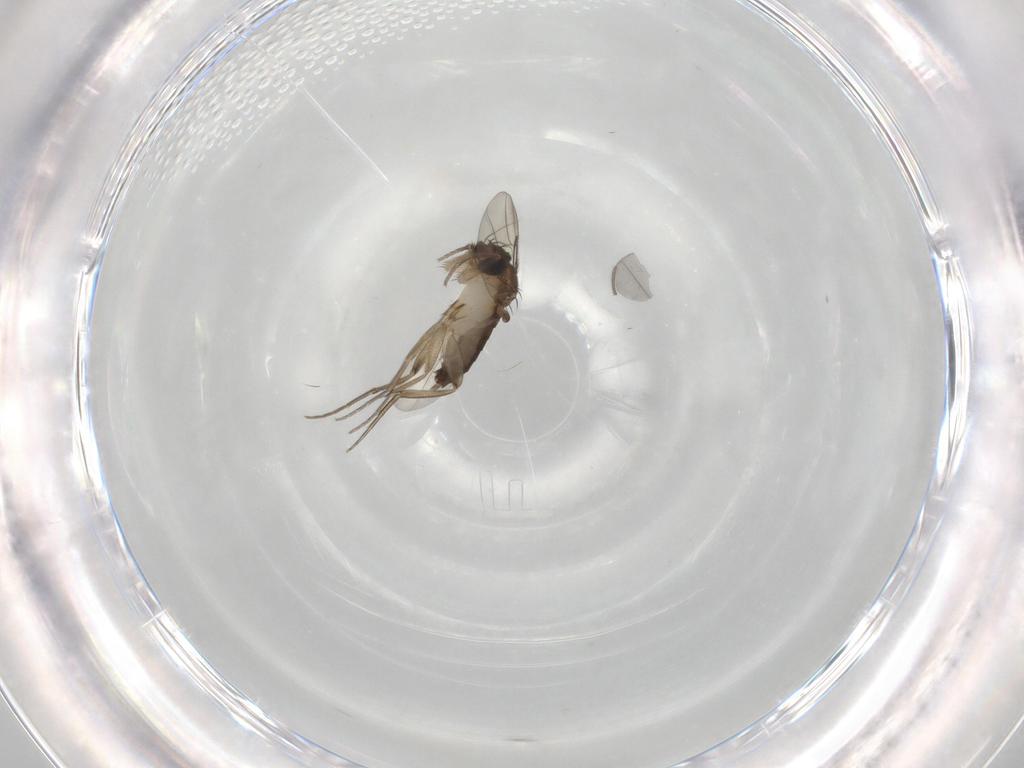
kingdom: Animalia
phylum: Arthropoda
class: Insecta
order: Diptera
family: Phoridae
